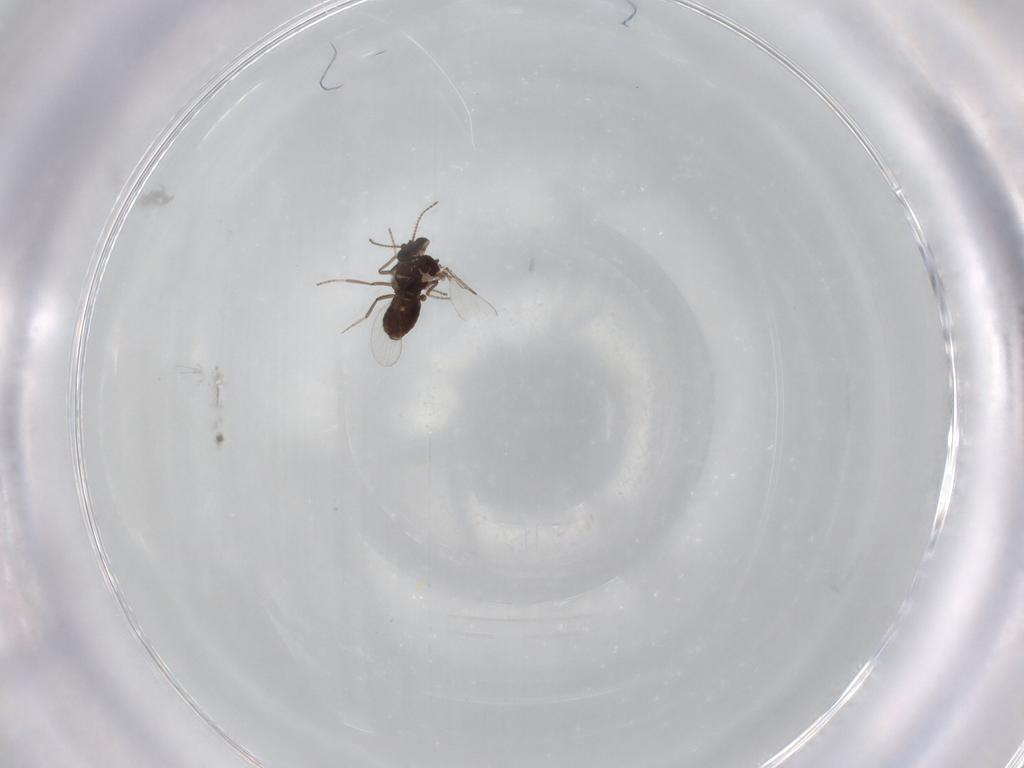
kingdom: Animalia
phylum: Arthropoda
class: Insecta
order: Diptera
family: Ceratopogonidae
